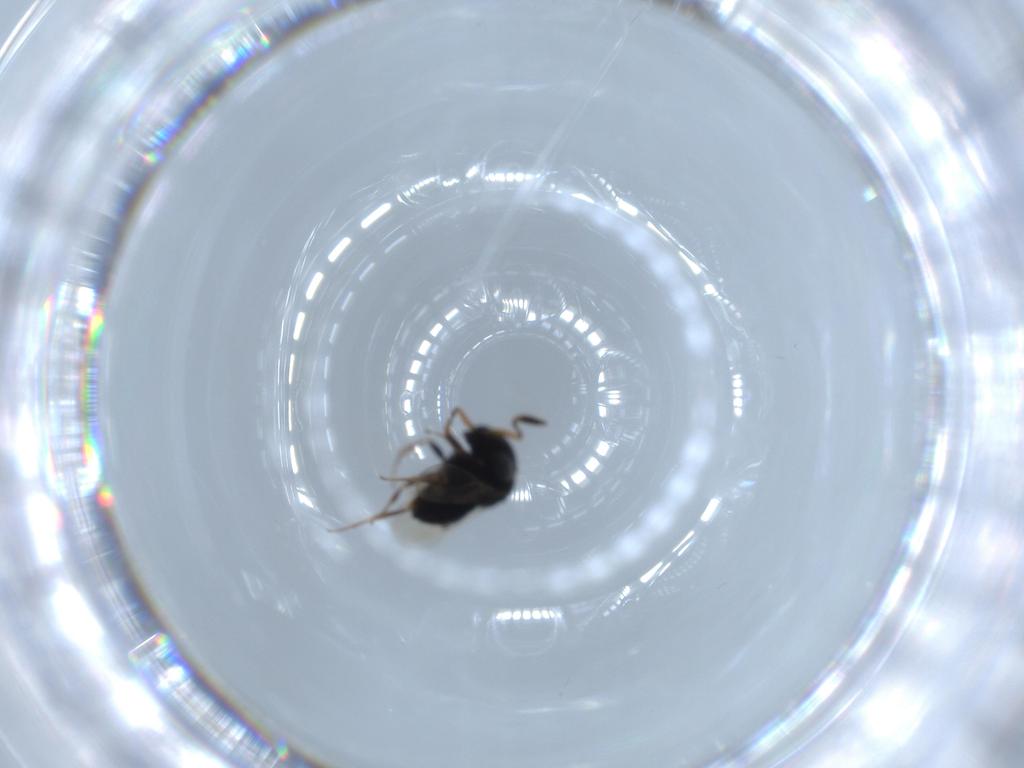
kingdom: Animalia
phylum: Arthropoda
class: Insecta
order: Hymenoptera
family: Scelionidae
